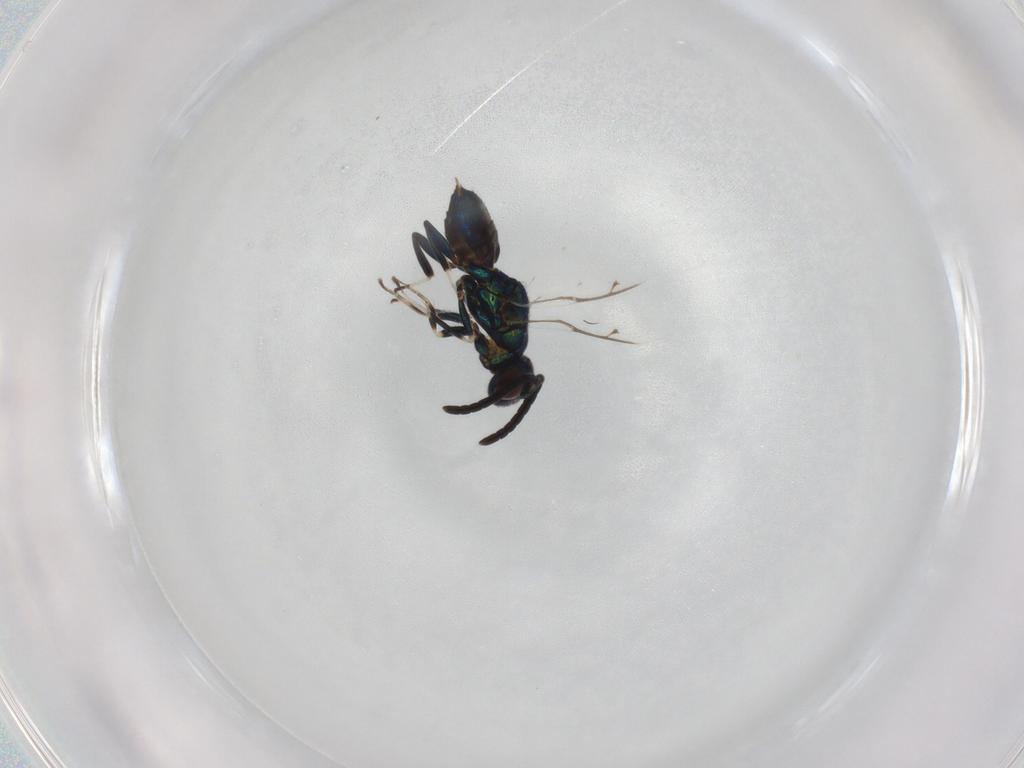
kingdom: Animalia
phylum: Arthropoda
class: Insecta
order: Hymenoptera
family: Eupelmidae
